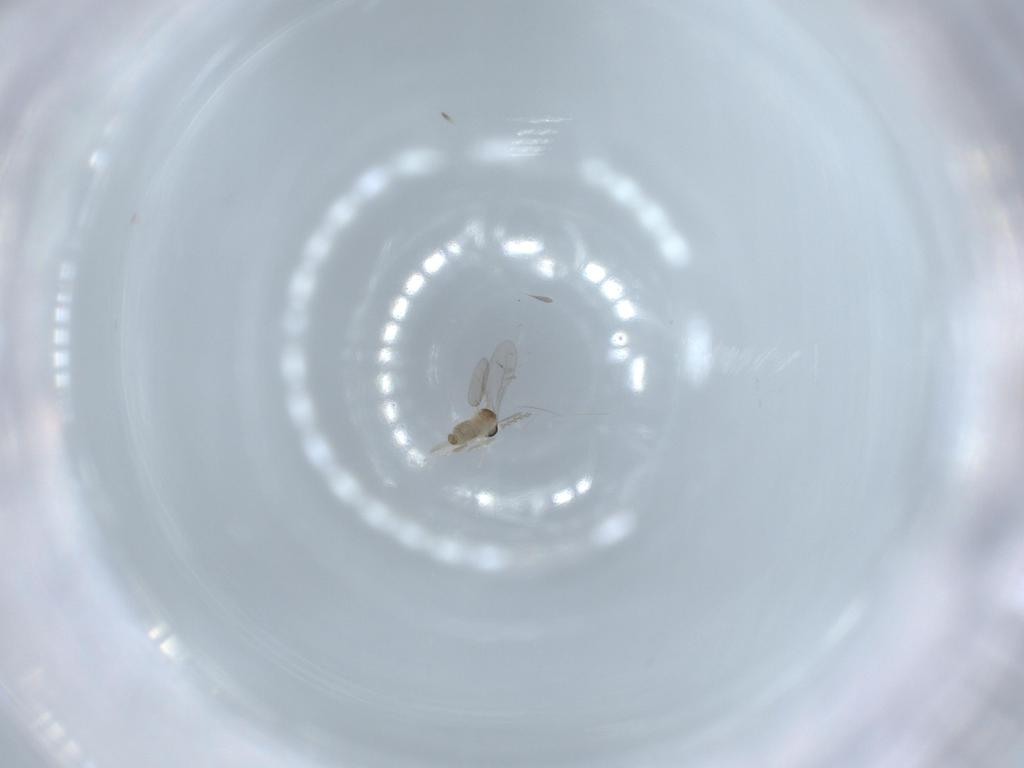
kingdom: Animalia
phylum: Arthropoda
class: Insecta
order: Diptera
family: Cecidomyiidae
